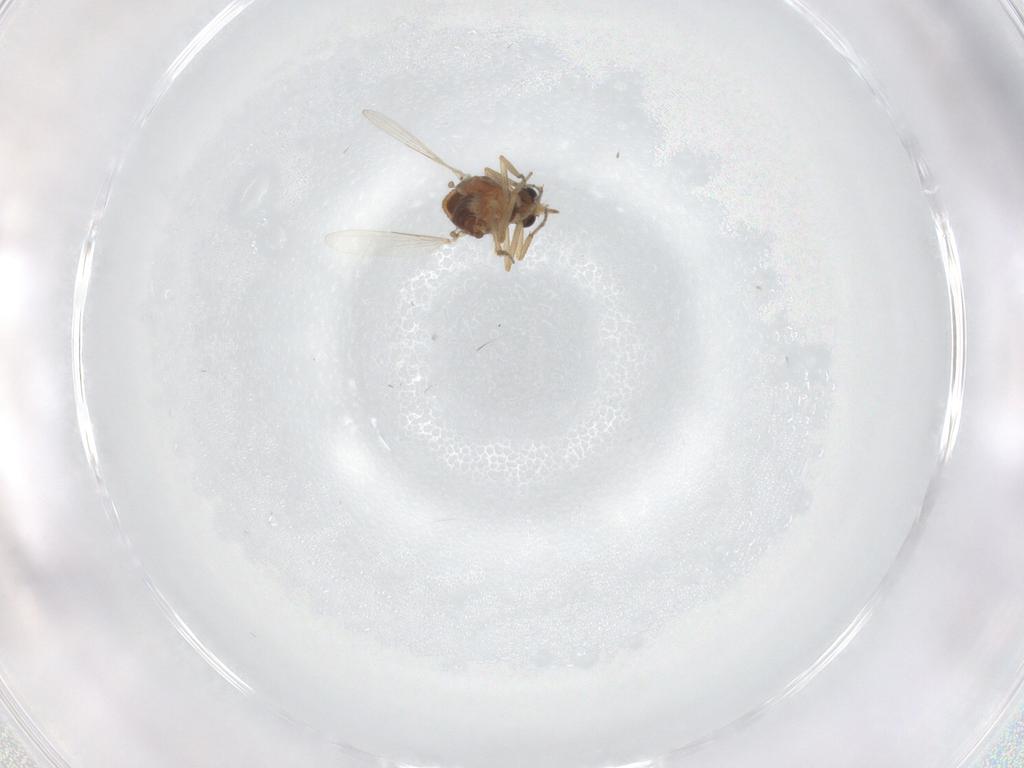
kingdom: Animalia
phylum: Arthropoda
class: Insecta
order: Diptera
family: Ceratopogonidae
